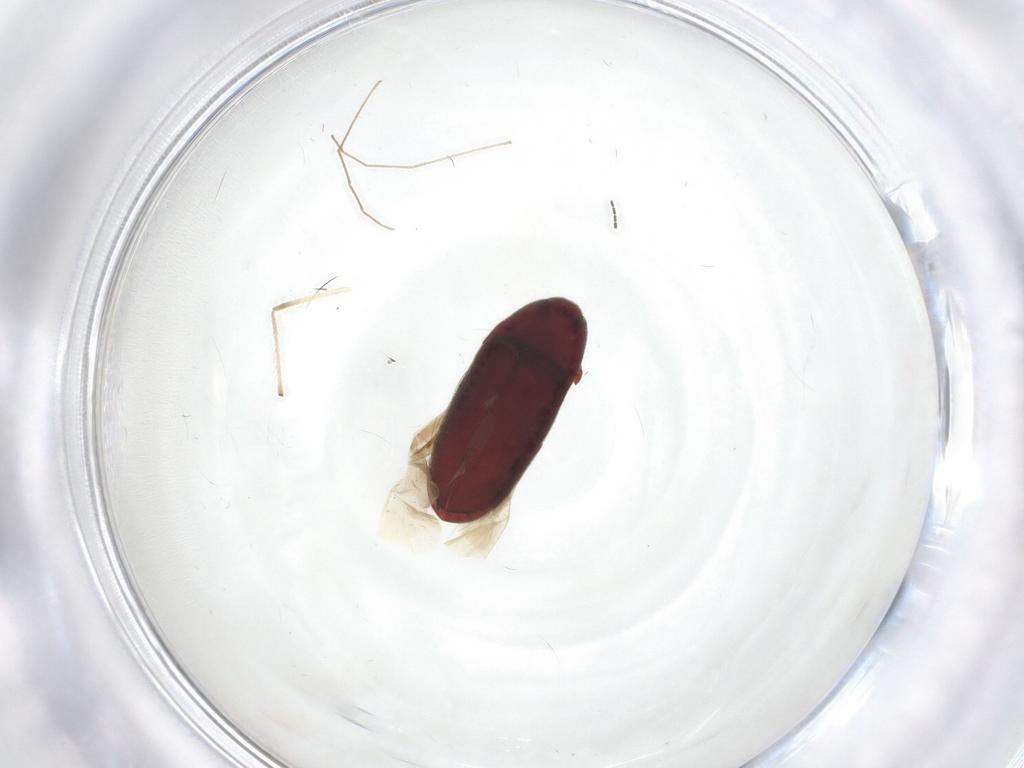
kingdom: Animalia
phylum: Arthropoda
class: Insecta
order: Coleoptera
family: Throscidae
